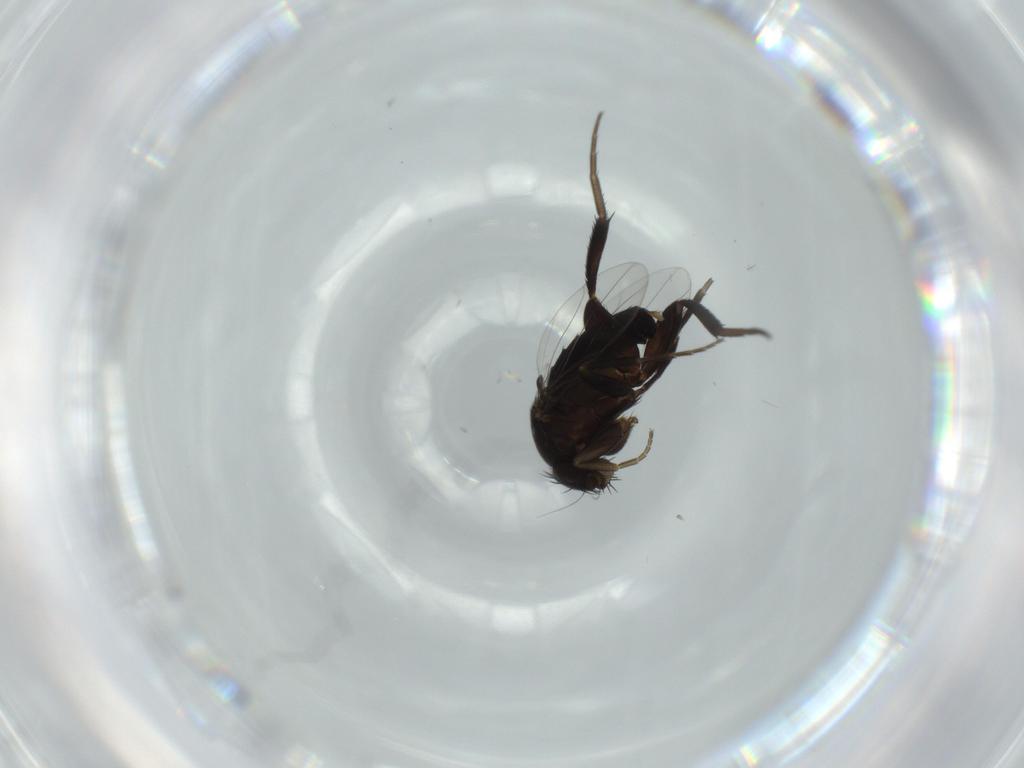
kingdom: Animalia
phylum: Arthropoda
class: Insecta
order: Diptera
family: Phoridae
